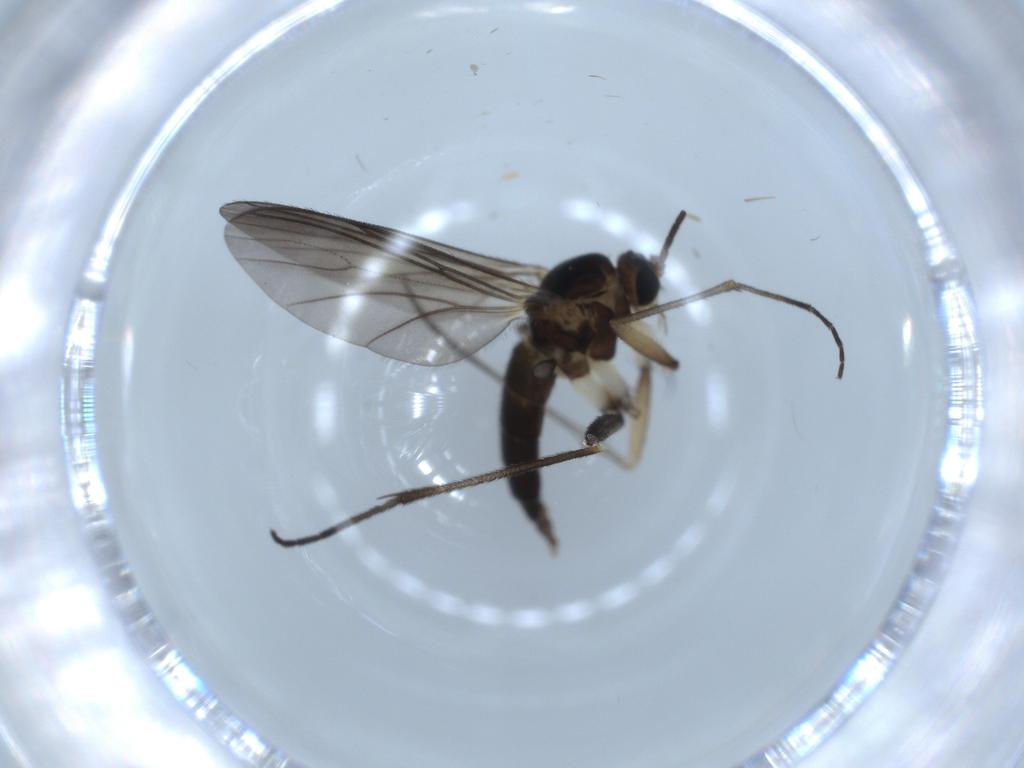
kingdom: Animalia
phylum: Arthropoda
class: Insecta
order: Diptera
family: Sciaridae
